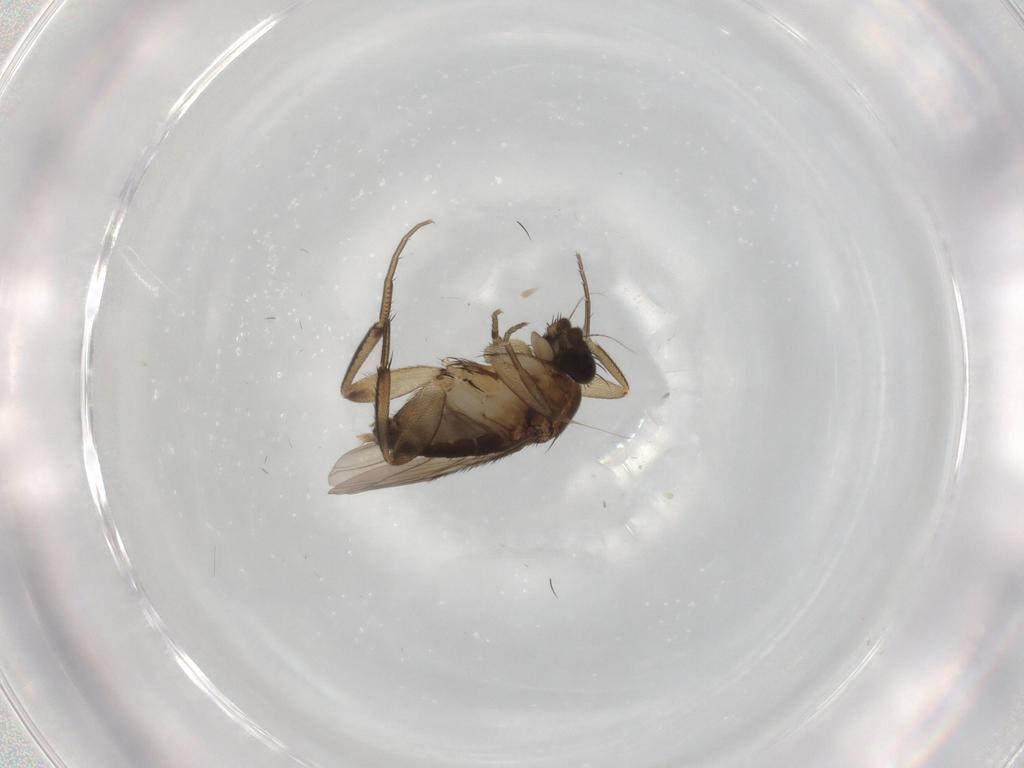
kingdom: Animalia
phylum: Arthropoda
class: Insecta
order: Diptera
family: Phoridae
